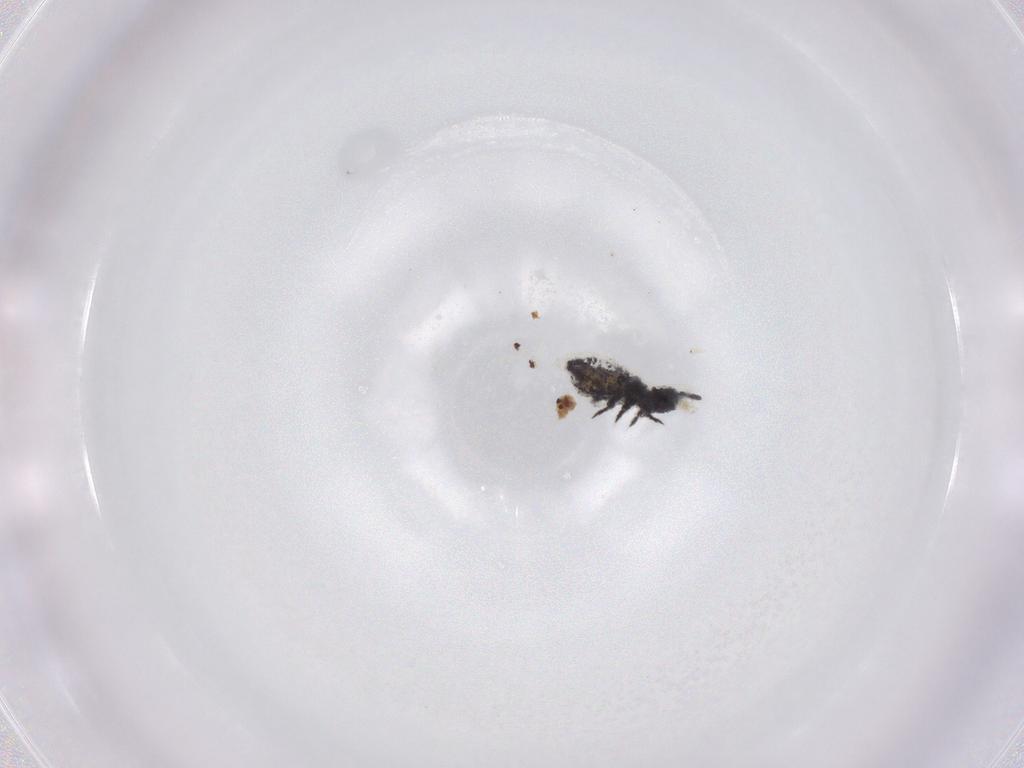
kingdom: Animalia
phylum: Arthropoda
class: Collembola
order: Poduromorpha
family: Hypogastruridae
